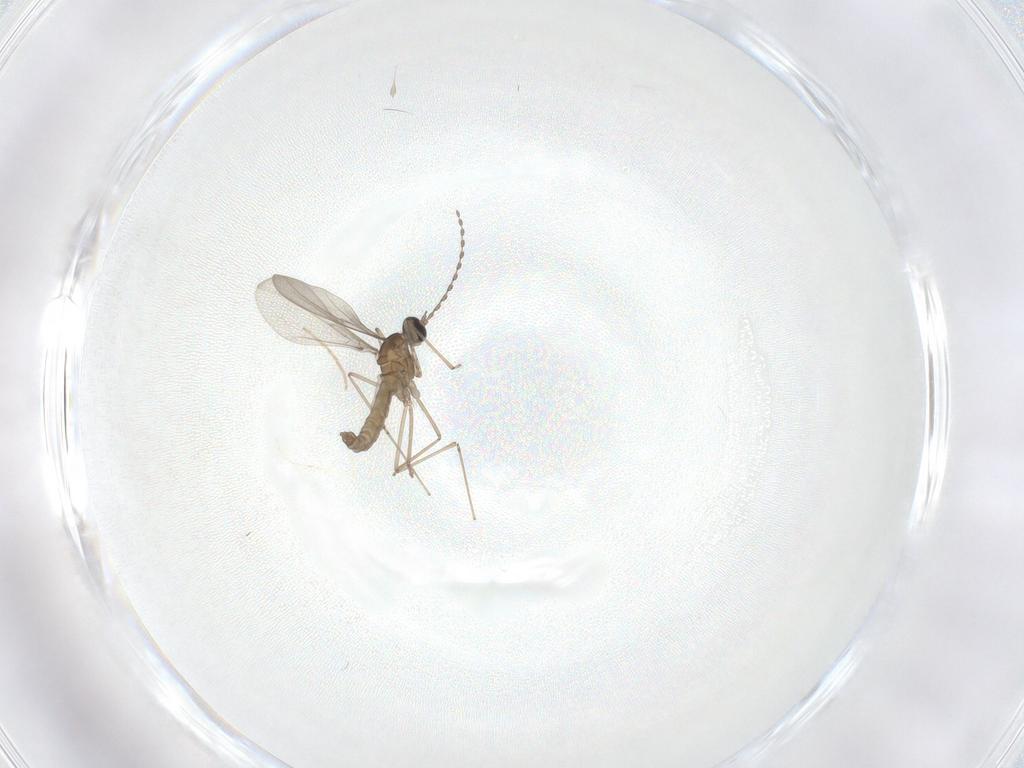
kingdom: Animalia
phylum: Arthropoda
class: Insecta
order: Diptera
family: Chironomidae
